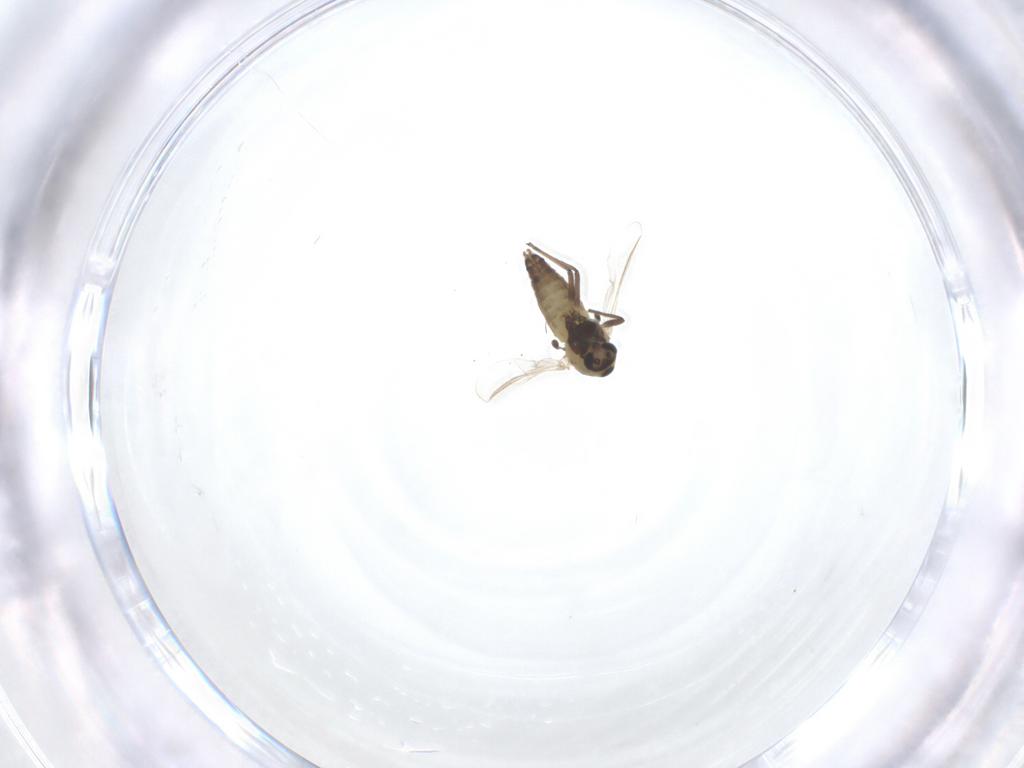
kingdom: Animalia
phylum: Arthropoda
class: Insecta
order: Diptera
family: Chironomidae
